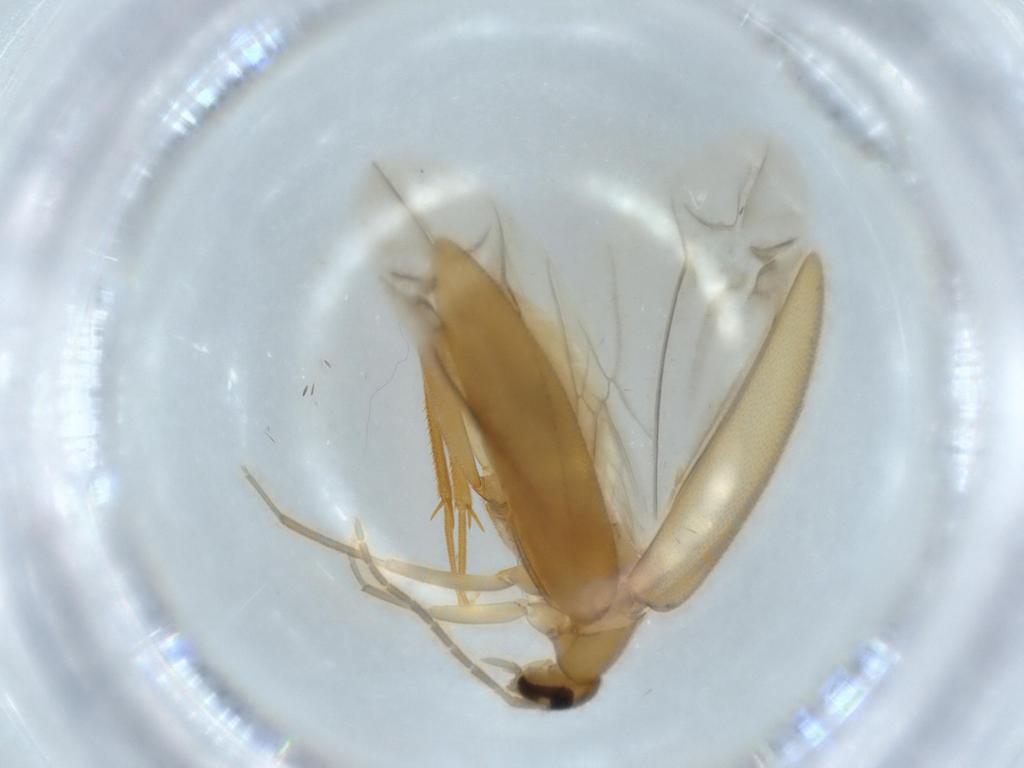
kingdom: Animalia
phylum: Arthropoda
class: Insecta
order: Coleoptera
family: Scraptiidae
